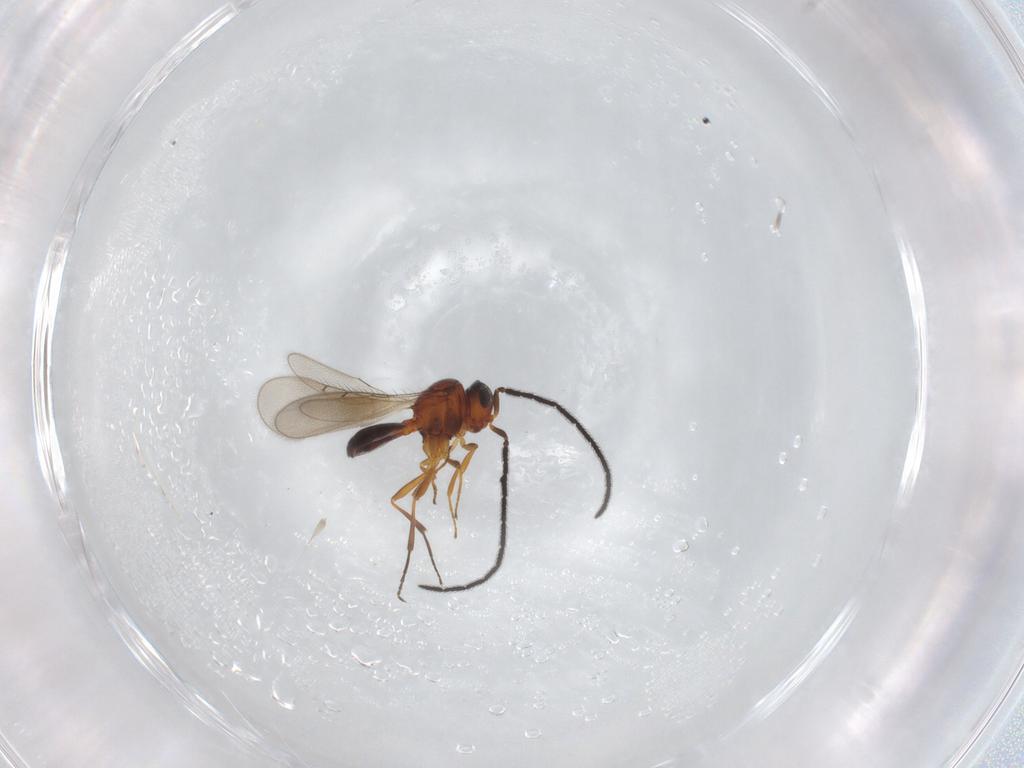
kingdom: Animalia
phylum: Arthropoda
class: Insecta
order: Hymenoptera
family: Scelionidae
